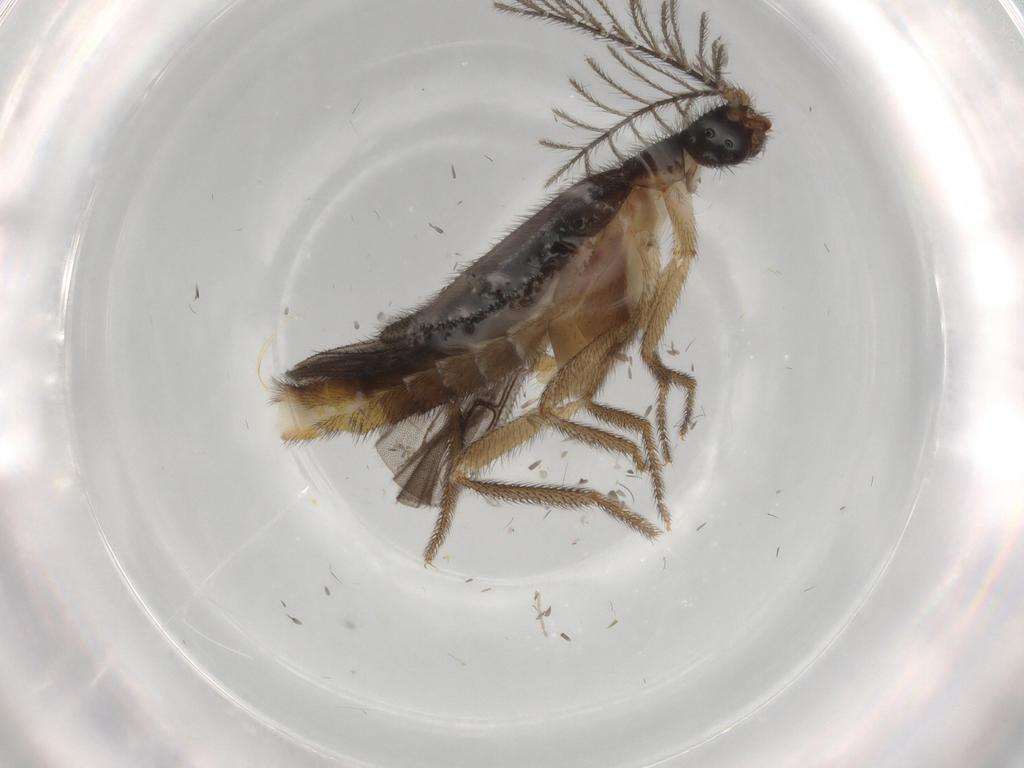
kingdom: Animalia
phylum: Arthropoda
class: Insecta
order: Coleoptera
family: Phengodidae
